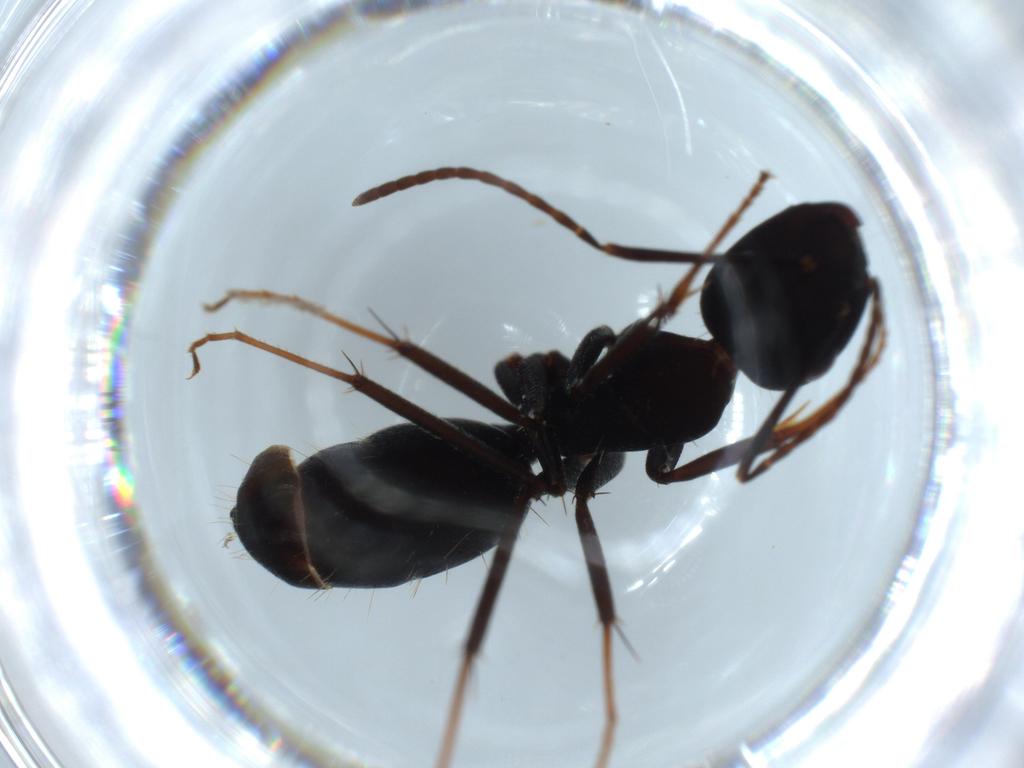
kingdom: Animalia
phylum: Arthropoda
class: Insecta
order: Hymenoptera
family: Formicidae
